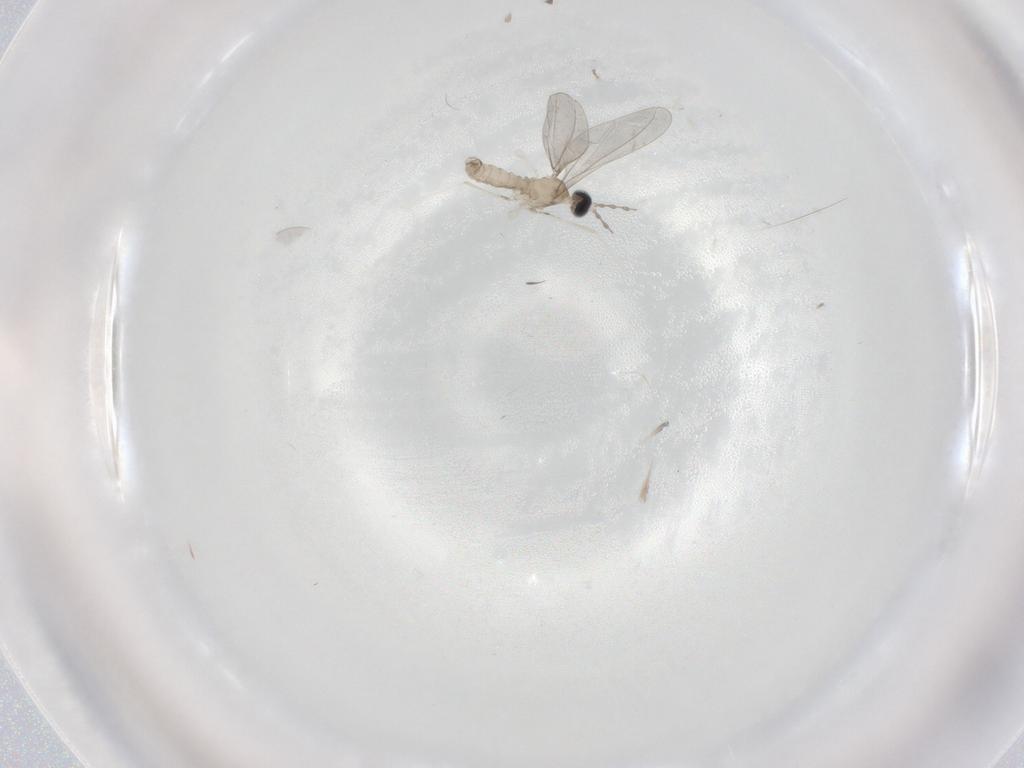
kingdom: Animalia
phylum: Arthropoda
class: Insecta
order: Diptera
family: Cecidomyiidae
